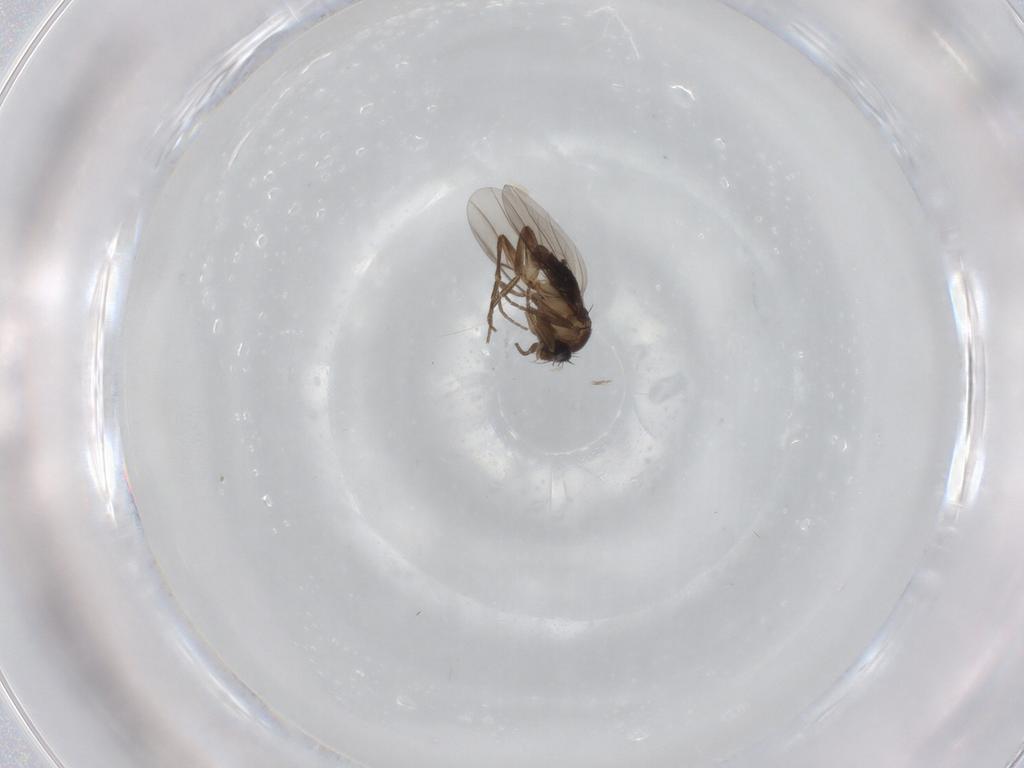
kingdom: Animalia
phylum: Arthropoda
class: Insecta
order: Diptera
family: Phoridae
